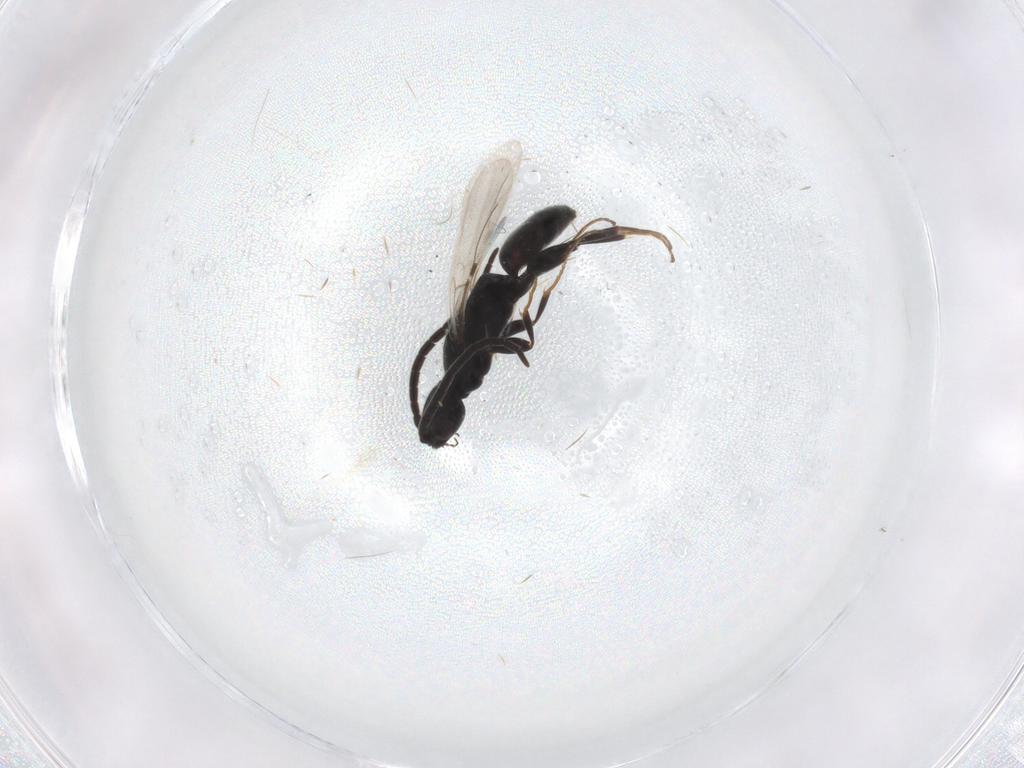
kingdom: Animalia
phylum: Arthropoda
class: Insecta
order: Hymenoptera
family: Bethylidae
